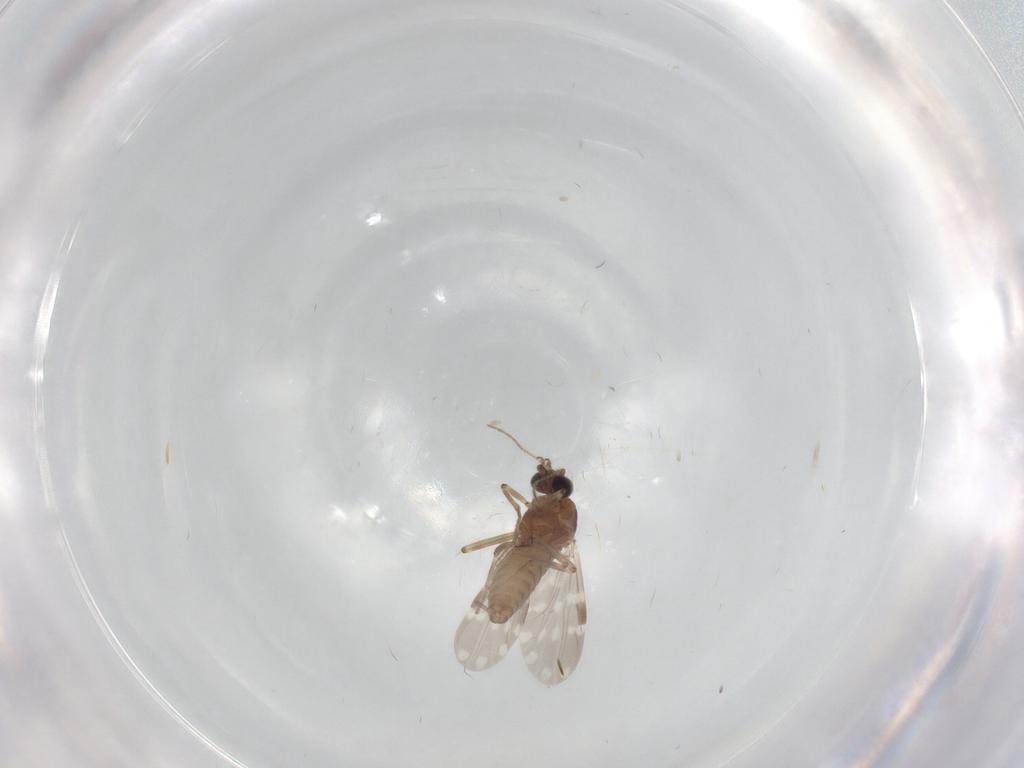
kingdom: Animalia
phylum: Arthropoda
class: Insecta
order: Diptera
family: Ceratopogonidae
